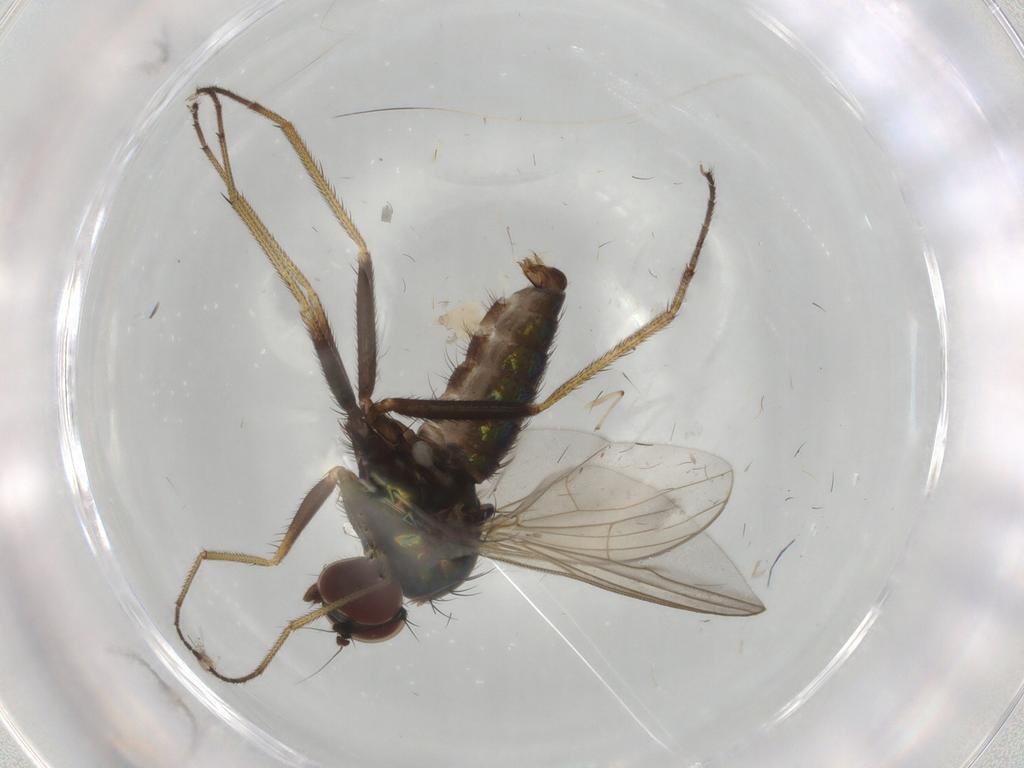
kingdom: Animalia
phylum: Arthropoda
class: Insecta
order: Diptera
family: Dolichopodidae
